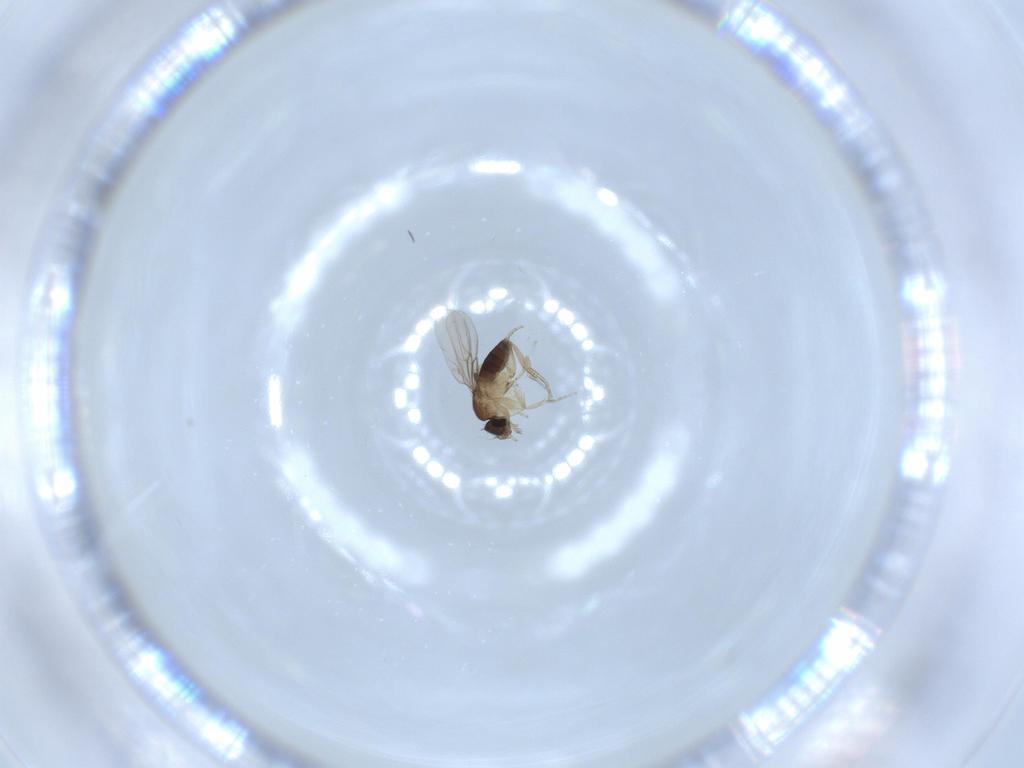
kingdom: Animalia
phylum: Arthropoda
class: Insecta
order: Diptera
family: Phoridae
